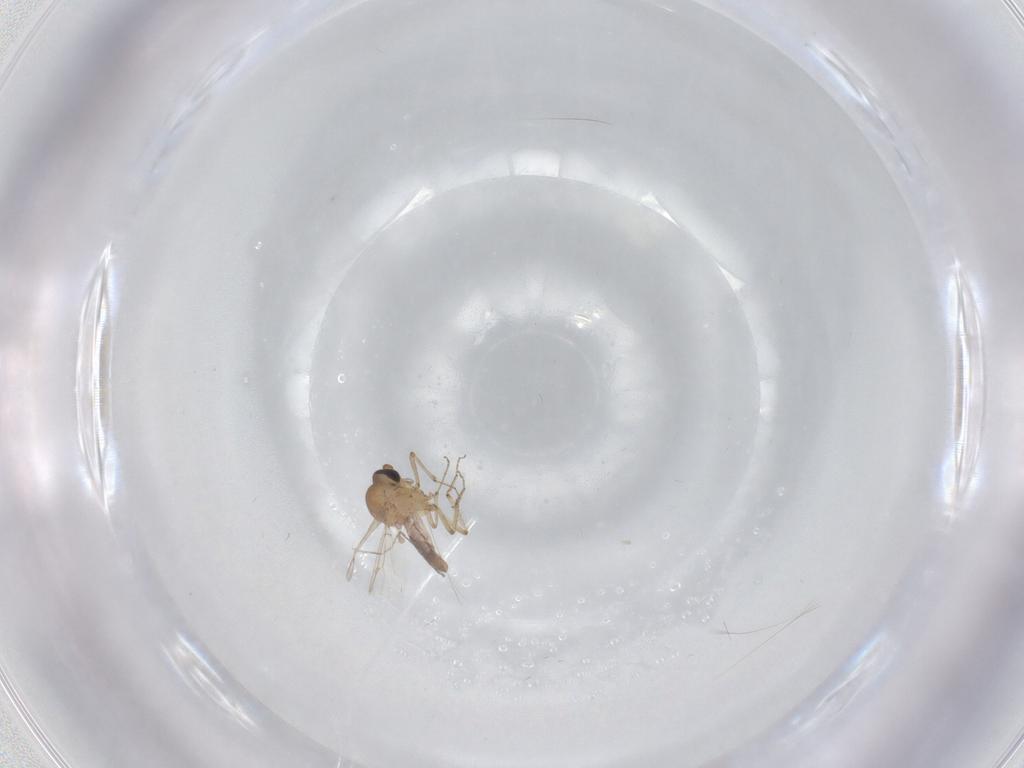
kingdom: Animalia
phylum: Arthropoda
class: Insecta
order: Diptera
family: Cecidomyiidae
